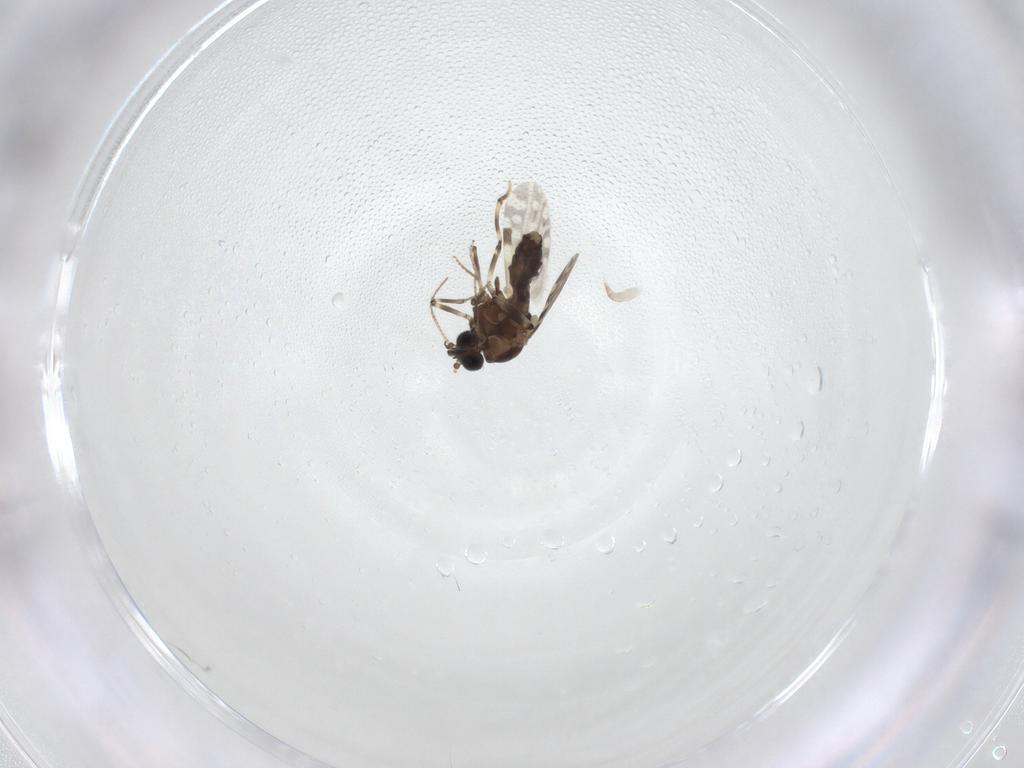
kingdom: Animalia
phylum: Arthropoda
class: Insecta
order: Diptera
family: Ceratopogonidae
